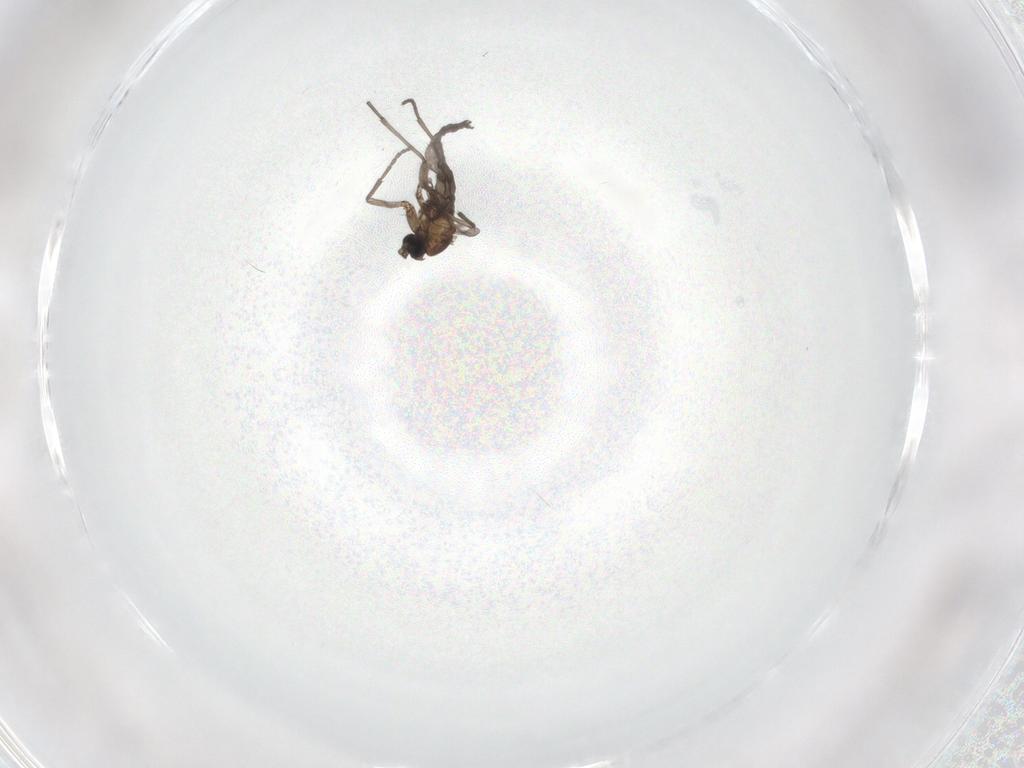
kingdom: Animalia
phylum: Arthropoda
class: Insecta
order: Diptera
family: Sciaridae
